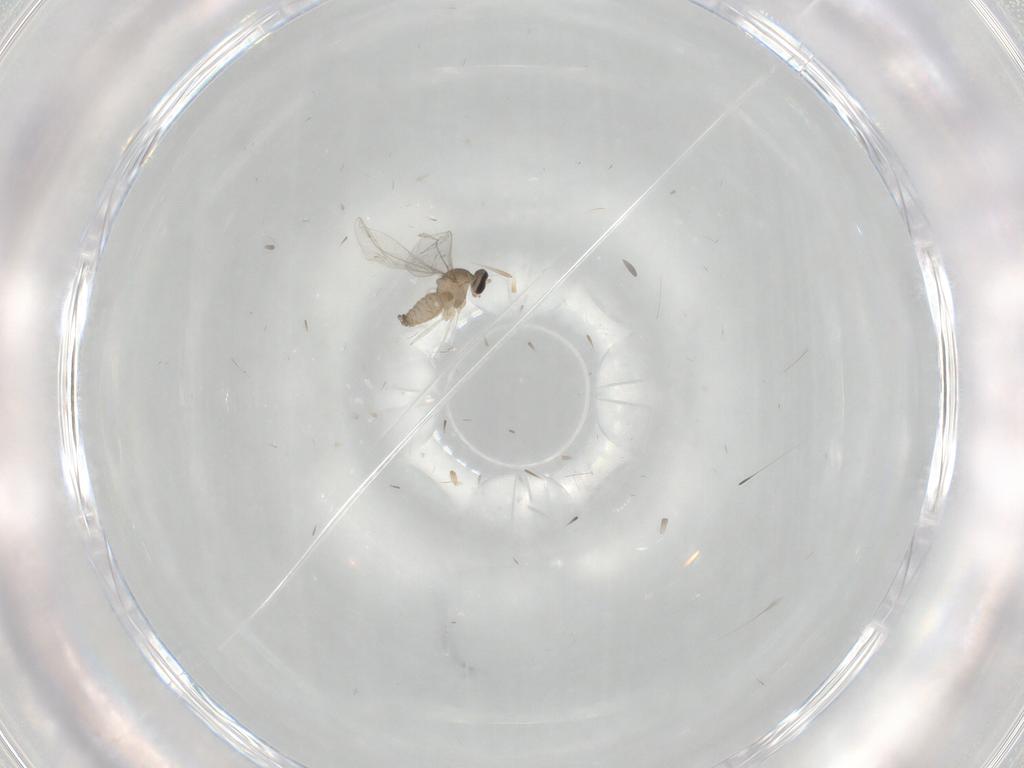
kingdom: Animalia
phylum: Arthropoda
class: Insecta
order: Diptera
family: Cecidomyiidae
